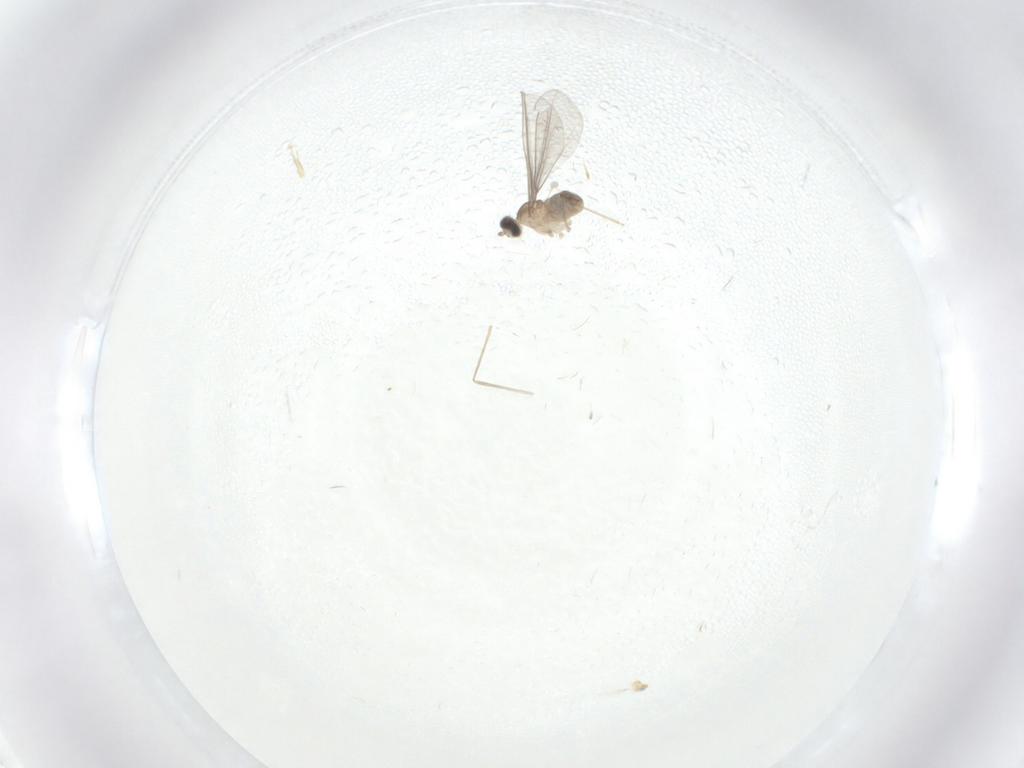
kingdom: Animalia
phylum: Arthropoda
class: Insecta
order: Diptera
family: Cecidomyiidae
